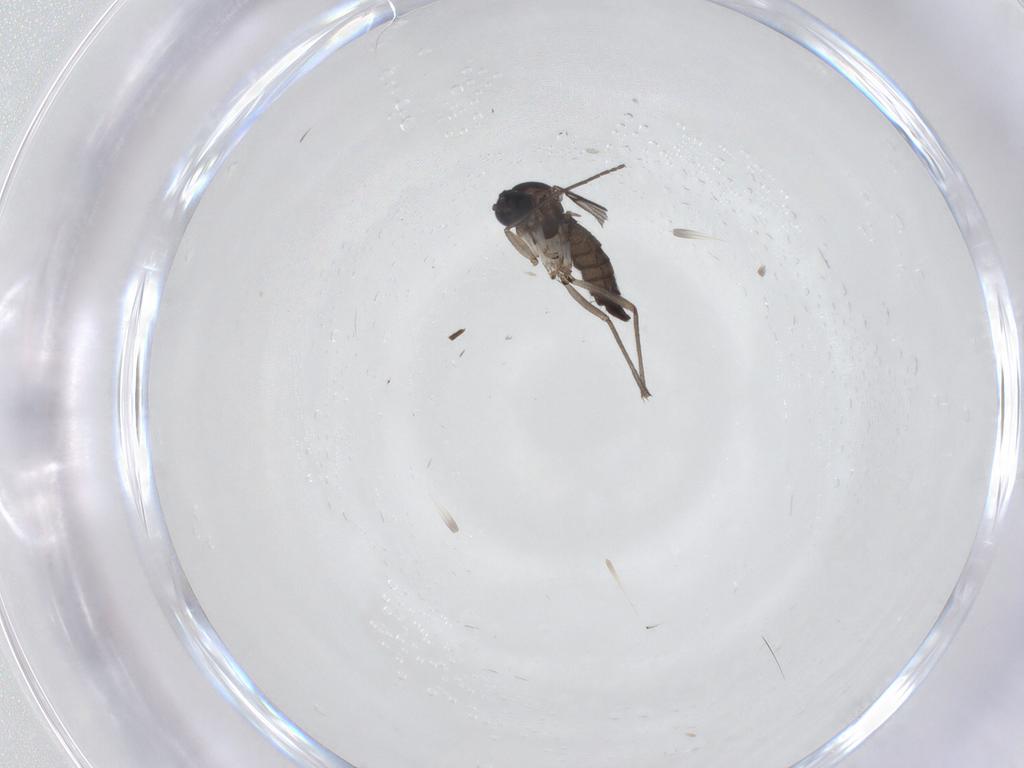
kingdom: Animalia
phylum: Arthropoda
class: Insecta
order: Diptera
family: Sciaridae
